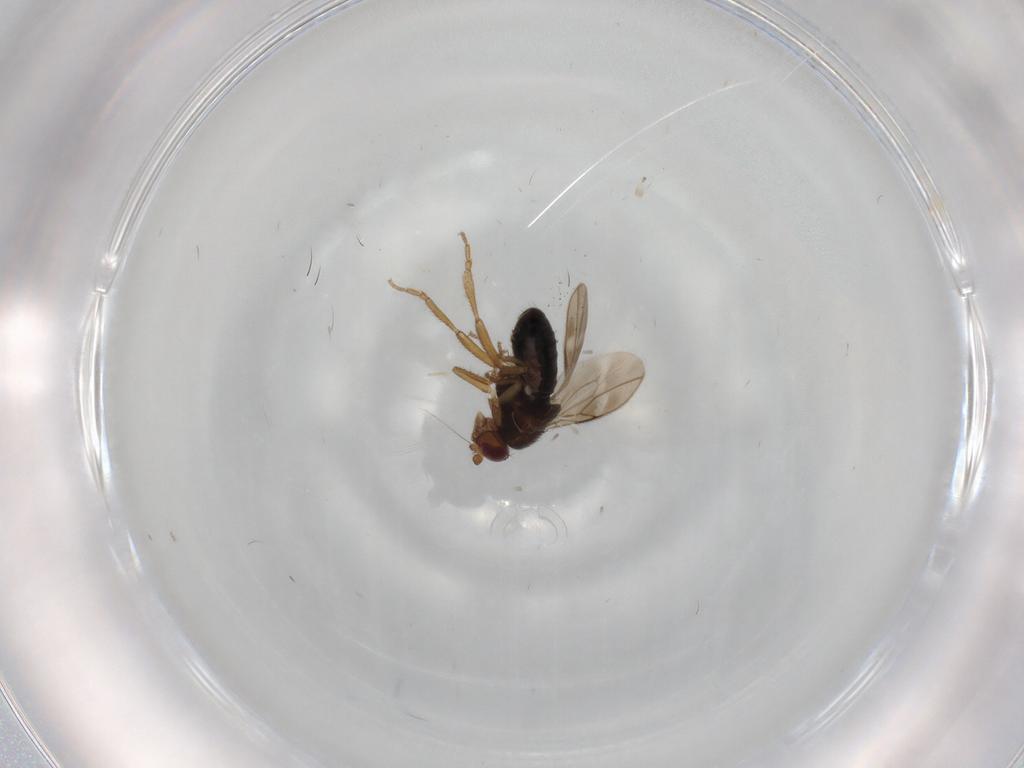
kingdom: Animalia
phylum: Arthropoda
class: Insecta
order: Diptera
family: Sphaeroceridae
